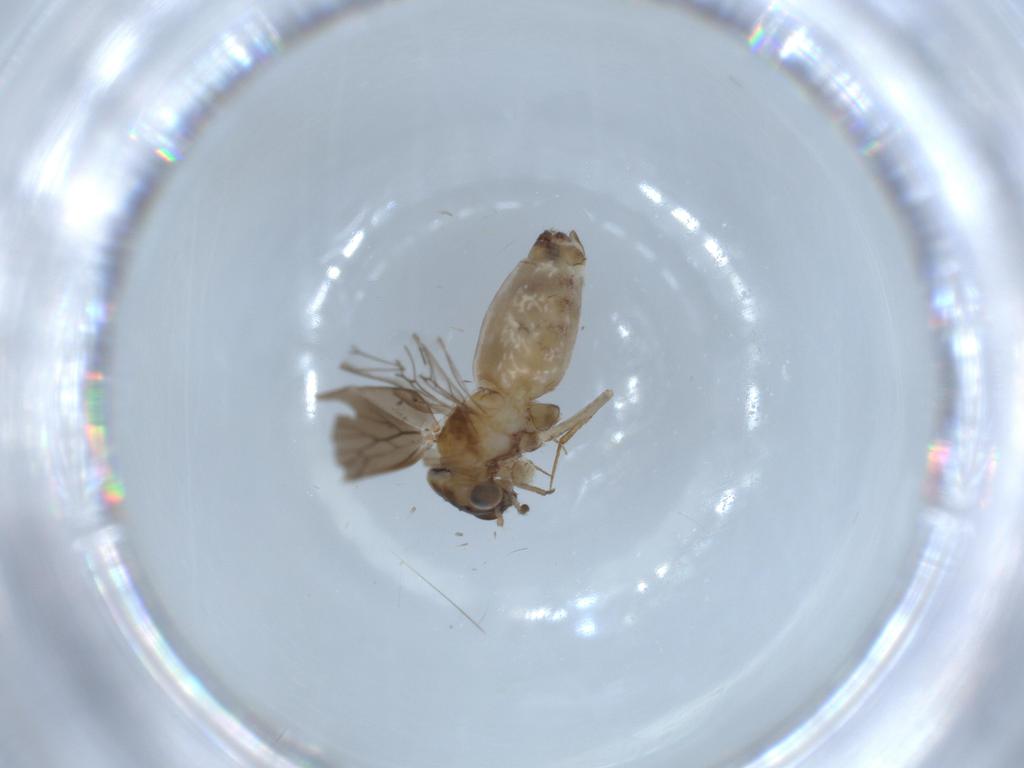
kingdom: Animalia
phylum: Arthropoda
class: Insecta
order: Psocodea
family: Lepidopsocidae
